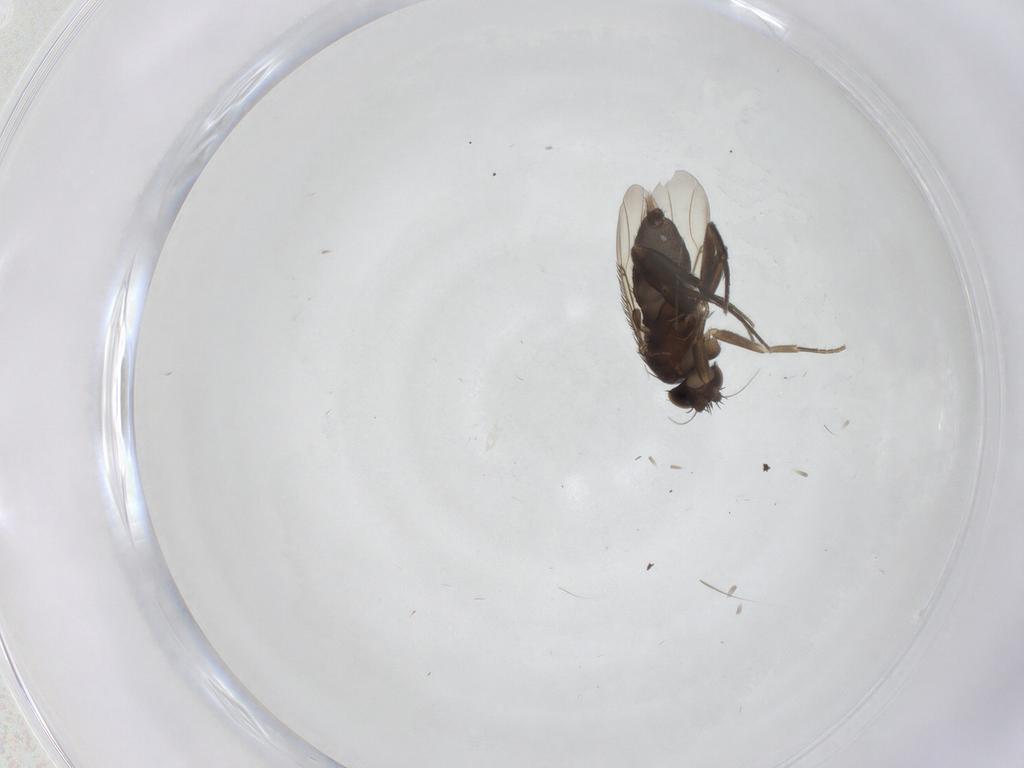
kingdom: Animalia
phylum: Arthropoda
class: Insecta
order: Diptera
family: Phoridae
